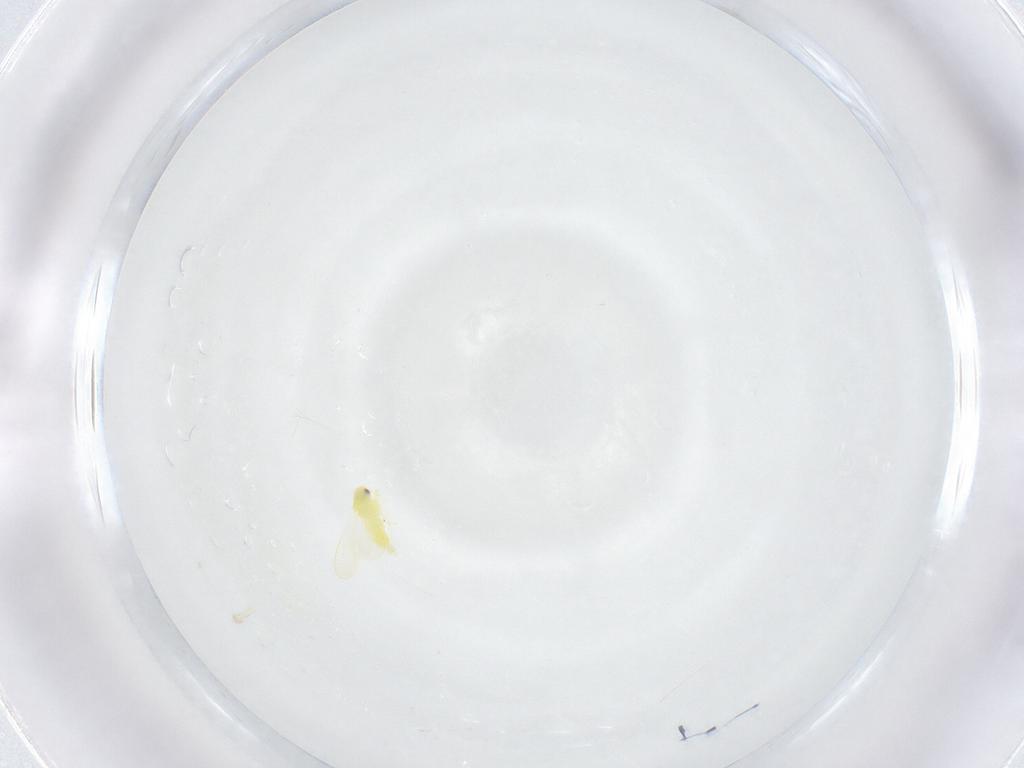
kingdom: Animalia
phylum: Arthropoda
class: Insecta
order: Hemiptera
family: Aleyrodidae
